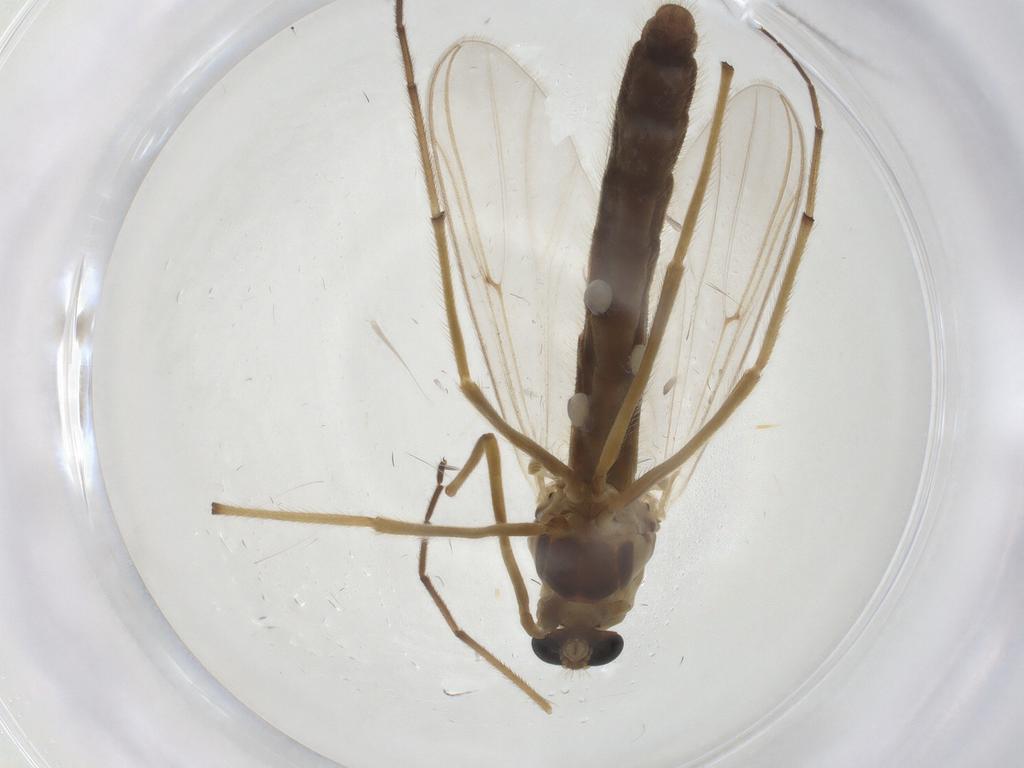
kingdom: Animalia
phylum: Arthropoda
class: Insecta
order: Diptera
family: Chironomidae
